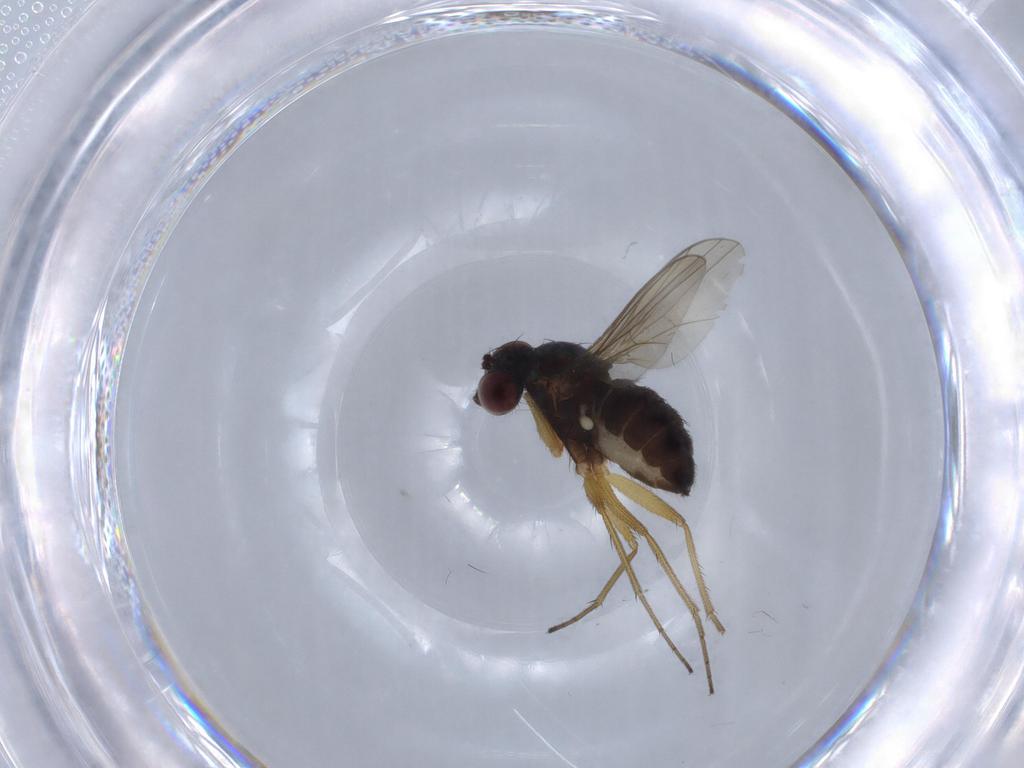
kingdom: Animalia
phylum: Arthropoda
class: Insecta
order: Diptera
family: Dolichopodidae
